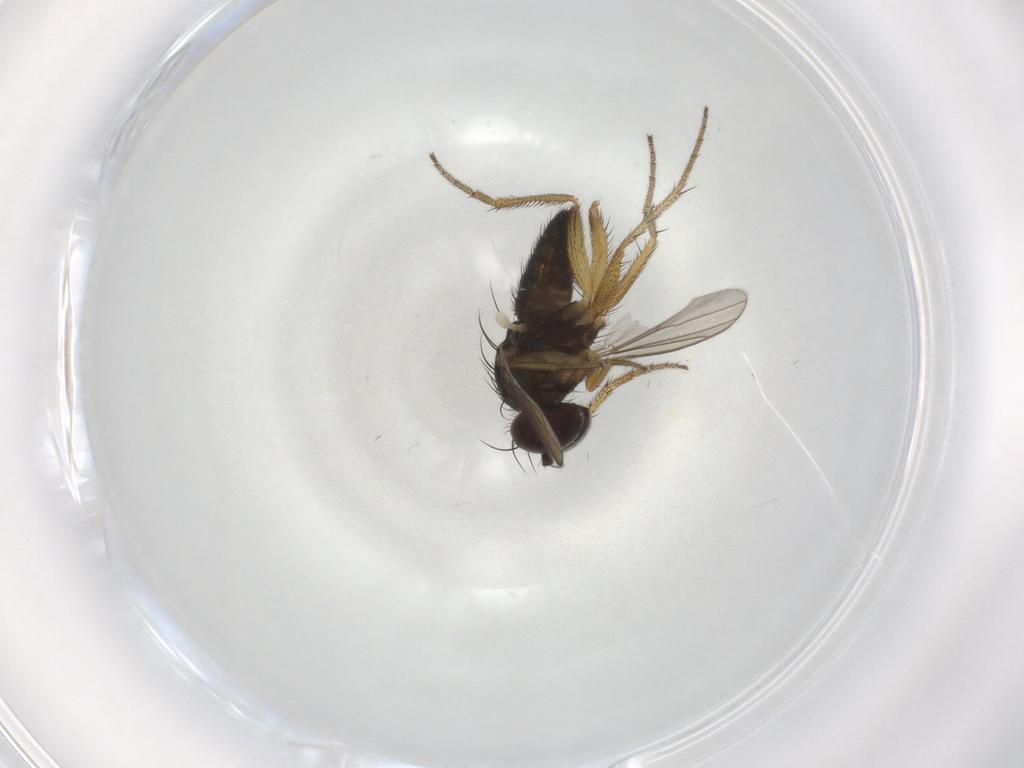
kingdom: Animalia
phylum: Arthropoda
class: Insecta
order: Diptera
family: Dolichopodidae
